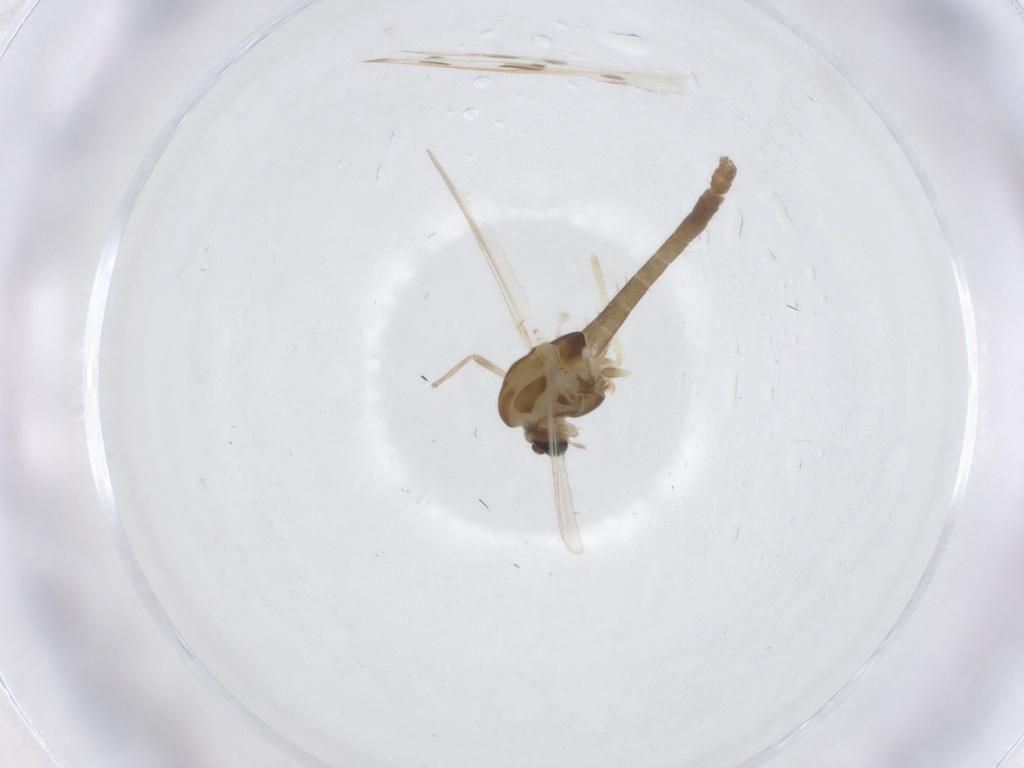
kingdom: Animalia
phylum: Arthropoda
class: Insecta
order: Diptera
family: Chironomidae
